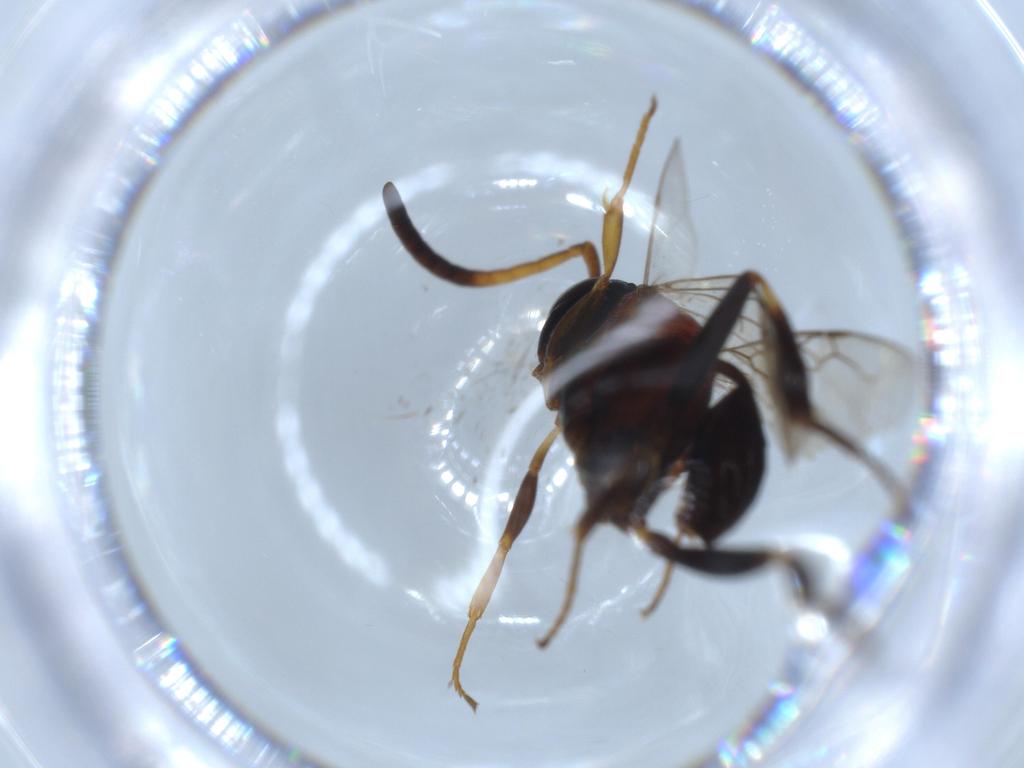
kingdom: Animalia
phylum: Arthropoda
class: Insecta
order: Hymenoptera
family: Evaniidae
